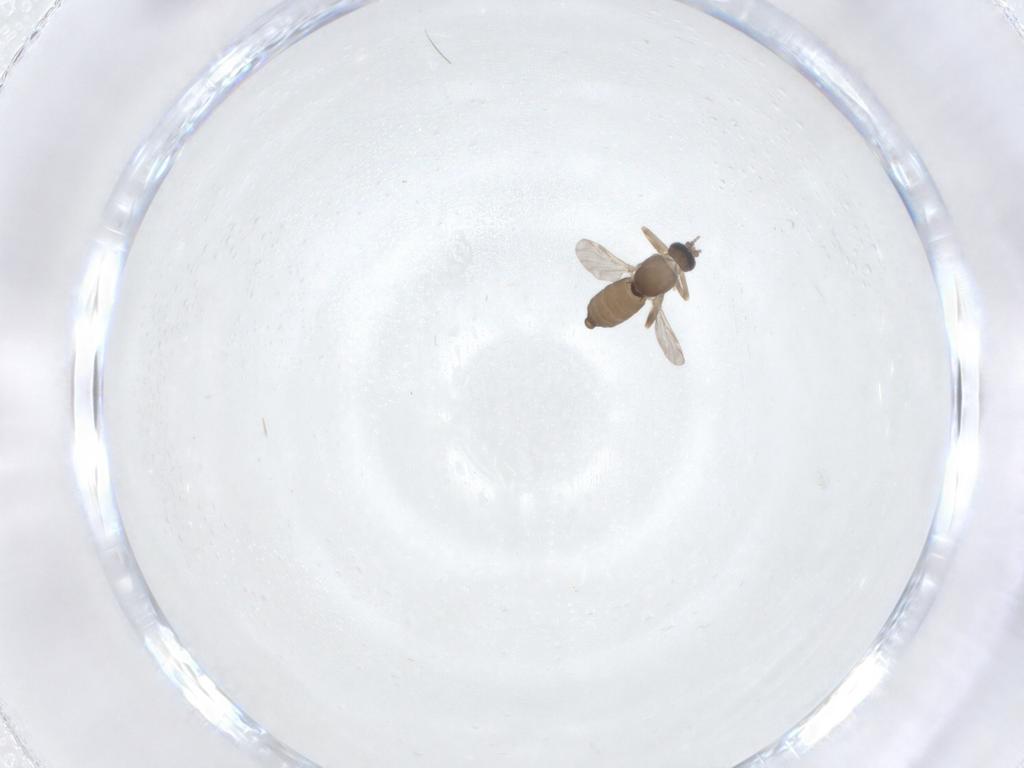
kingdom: Animalia
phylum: Arthropoda
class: Insecta
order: Diptera
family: Ceratopogonidae
